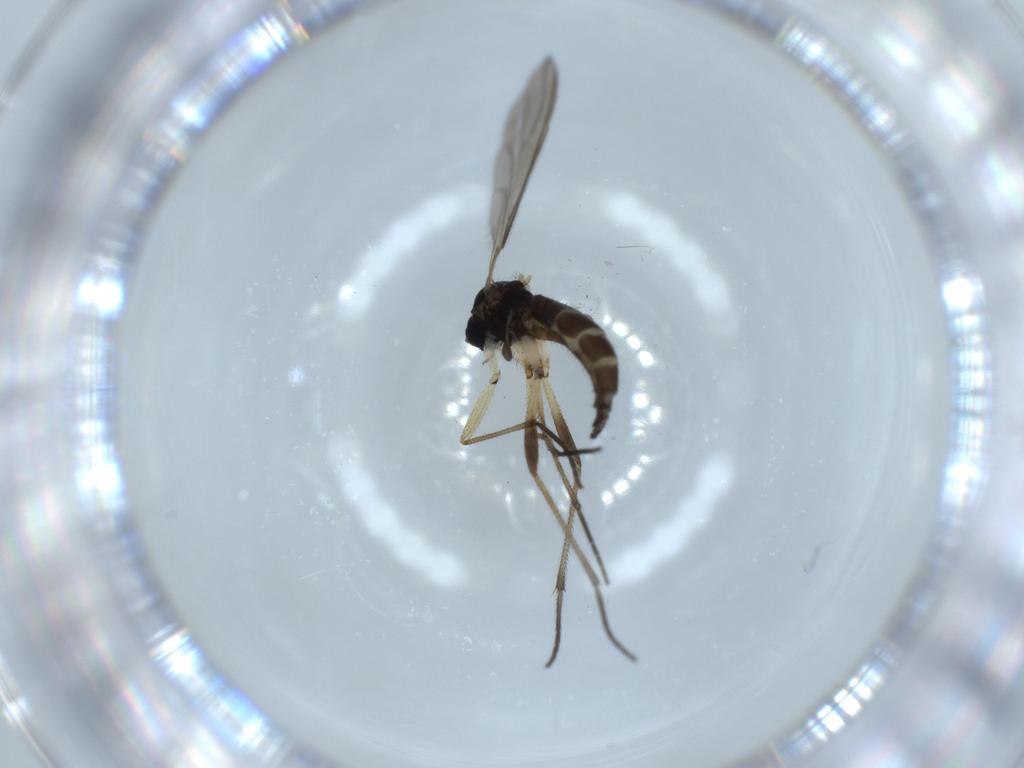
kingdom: Animalia
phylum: Arthropoda
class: Insecta
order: Diptera
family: Sciaridae
